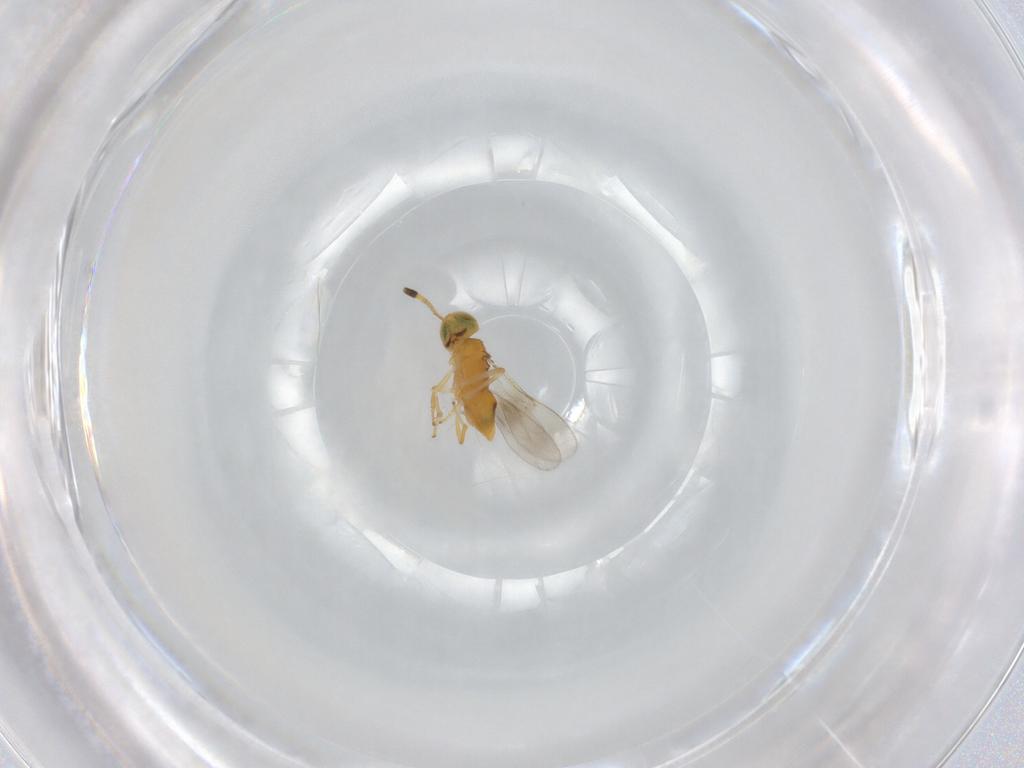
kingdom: Animalia
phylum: Arthropoda
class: Insecta
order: Hymenoptera
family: Encyrtidae
